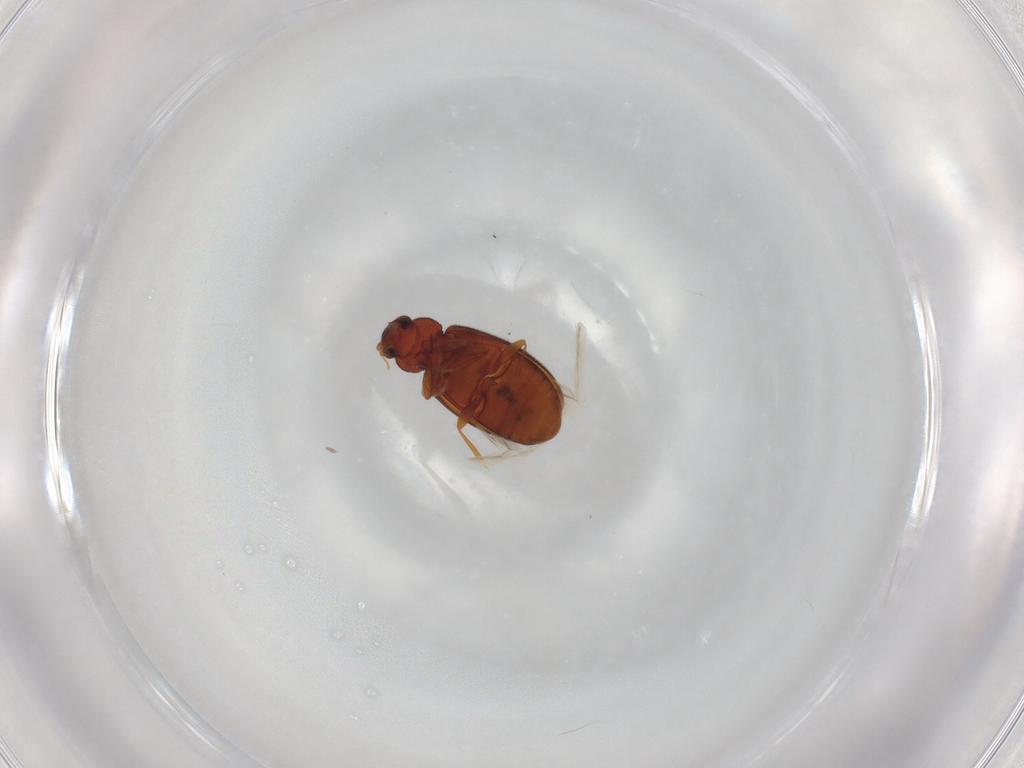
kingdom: Animalia
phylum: Arthropoda
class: Insecta
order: Coleoptera
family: Latridiidae
